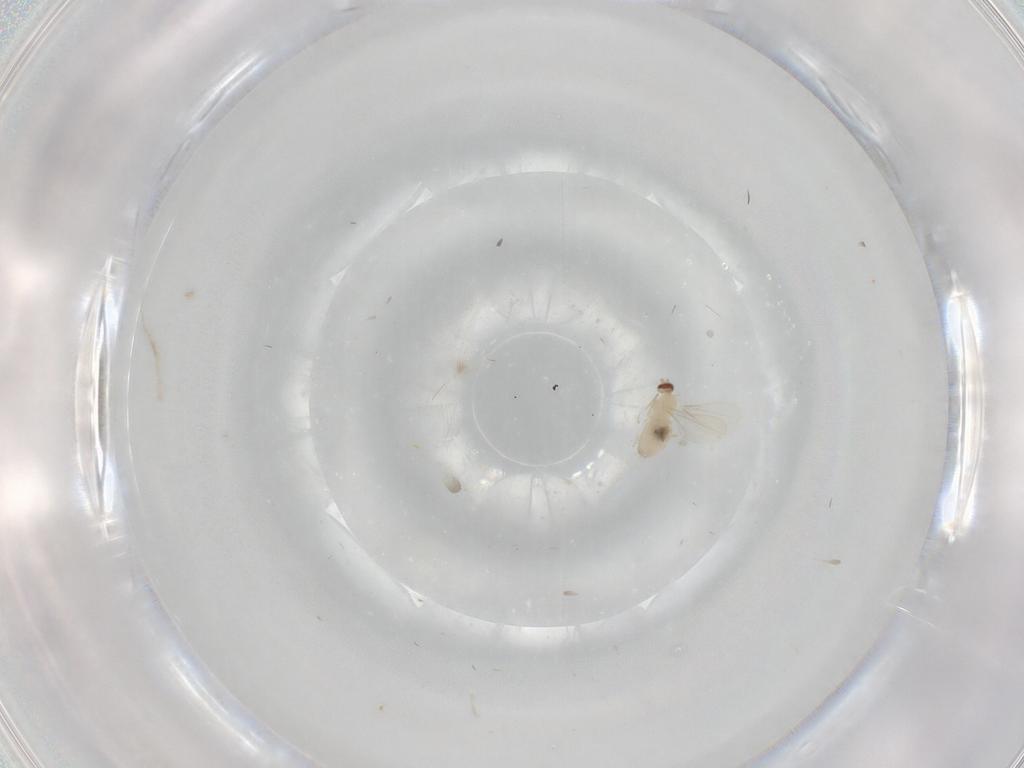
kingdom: Animalia
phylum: Arthropoda
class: Insecta
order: Diptera
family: Cecidomyiidae
